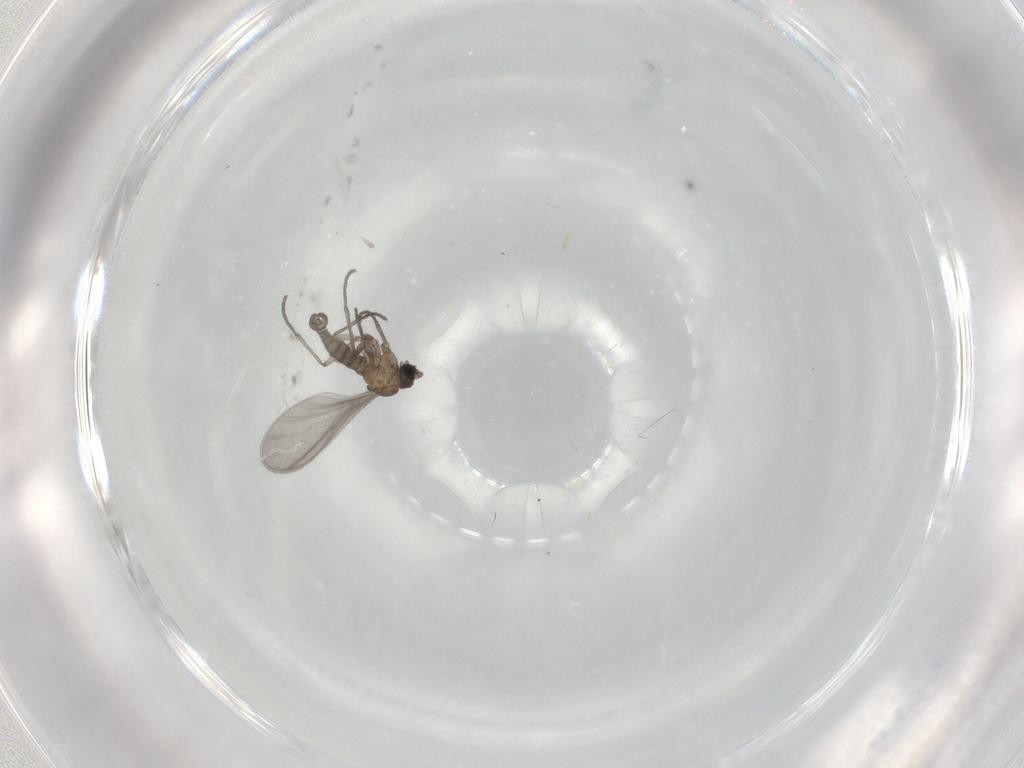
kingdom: Animalia
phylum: Arthropoda
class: Insecta
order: Diptera
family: Sciaridae
